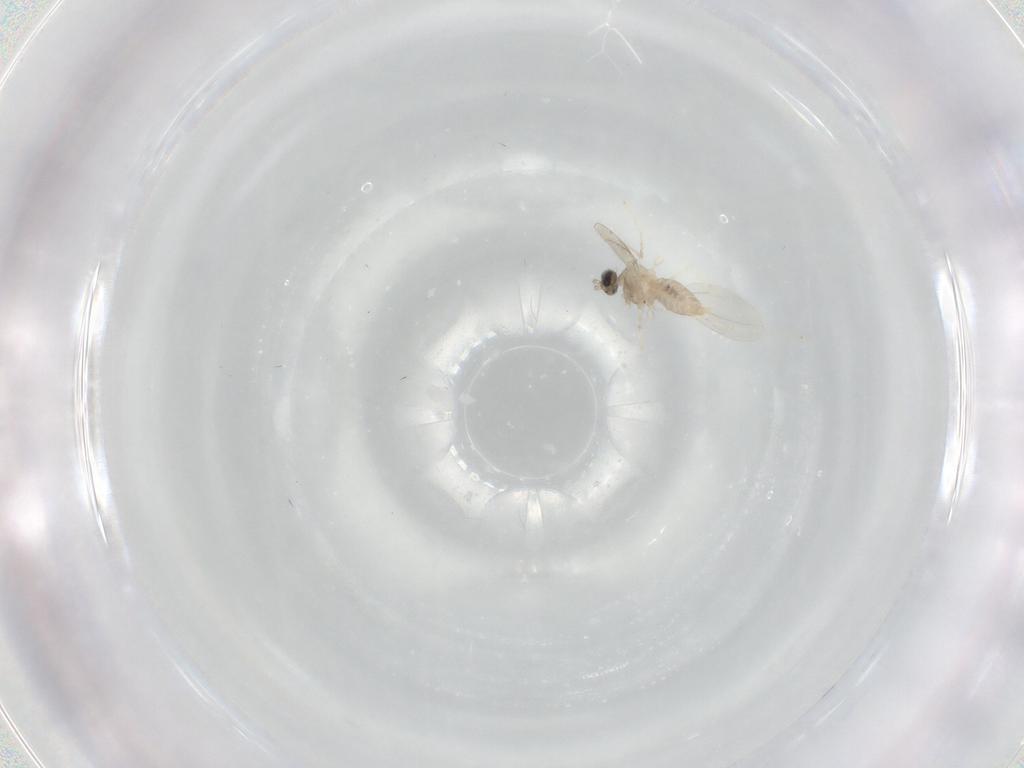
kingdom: Animalia
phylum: Arthropoda
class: Insecta
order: Diptera
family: Cecidomyiidae
